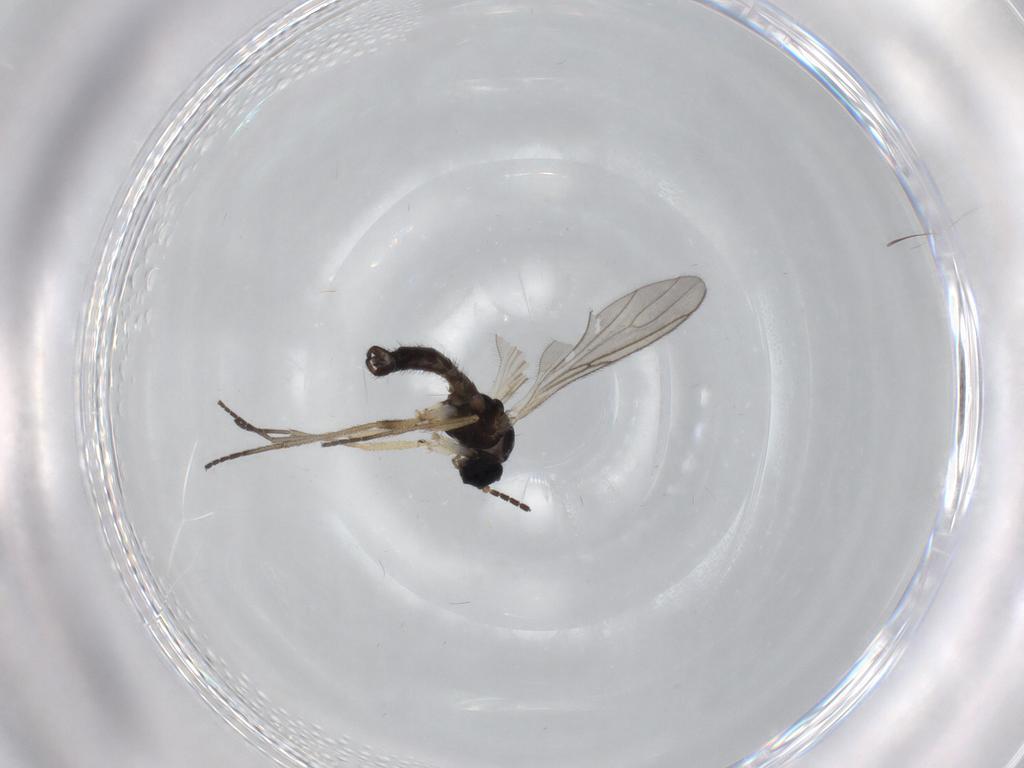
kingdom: Animalia
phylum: Arthropoda
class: Insecta
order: Diptera
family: Sciaridae
